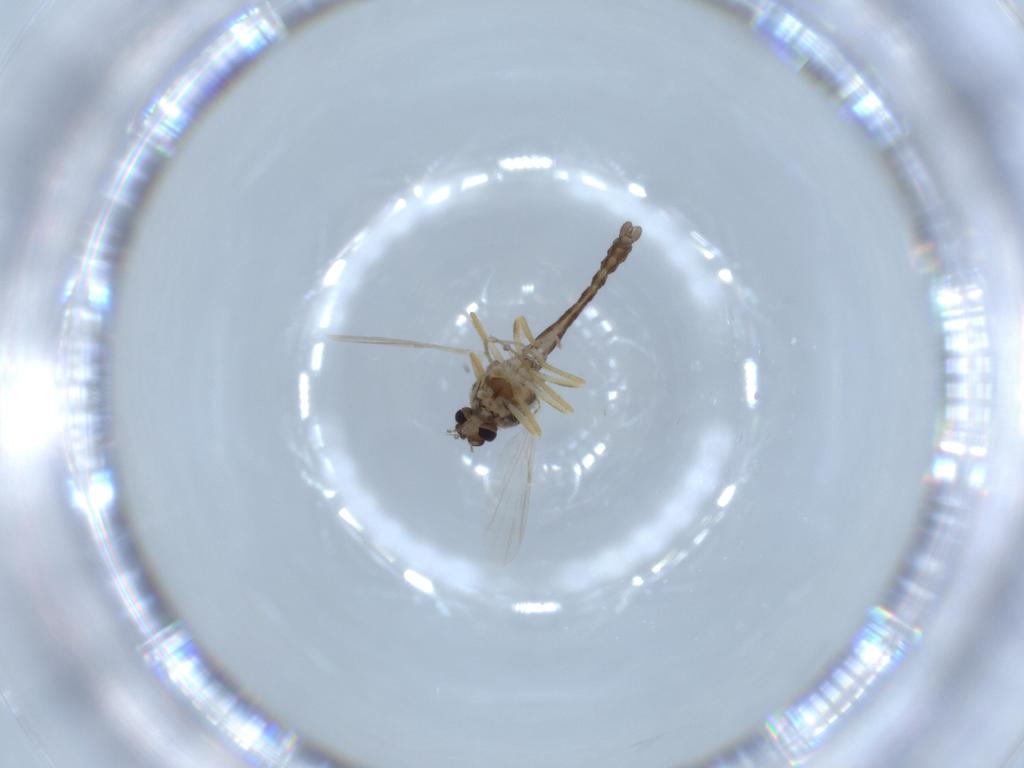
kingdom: Animalia
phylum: Arthropoda
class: Insecta
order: Diptera
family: Ceratopogonidae
